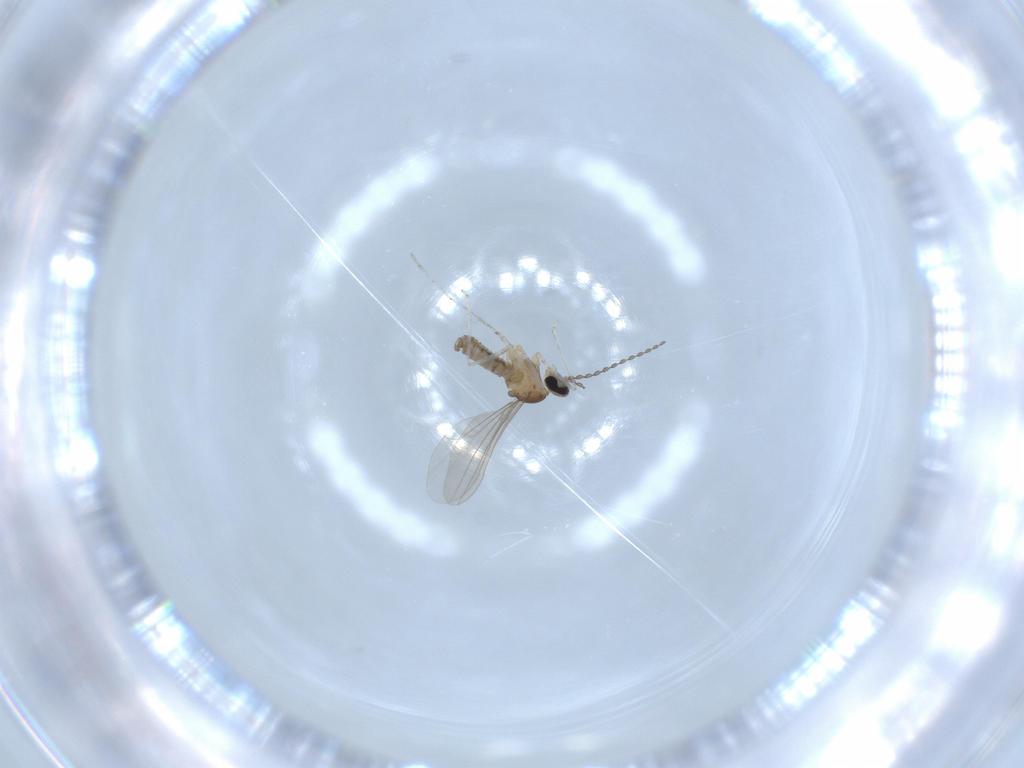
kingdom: Animalia
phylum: Arthropoda
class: Insecta
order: Diptera
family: Cecidomyiidae
